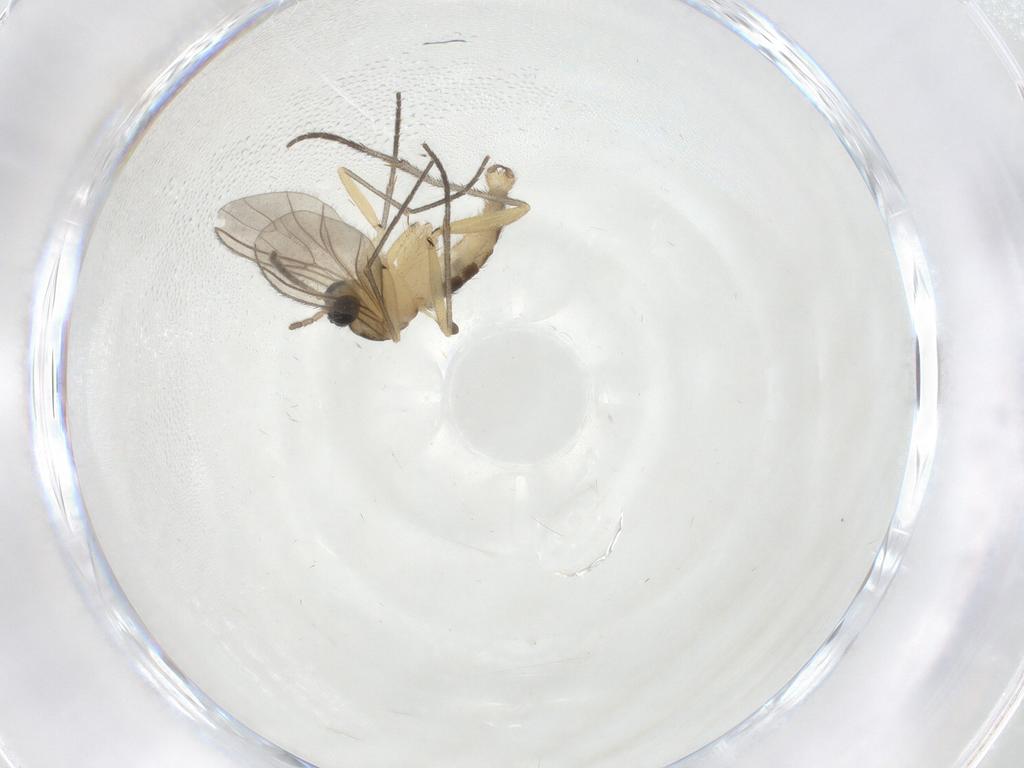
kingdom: Animalia
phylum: Arthropoda
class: Insecta
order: Diptera
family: Sciaridae
